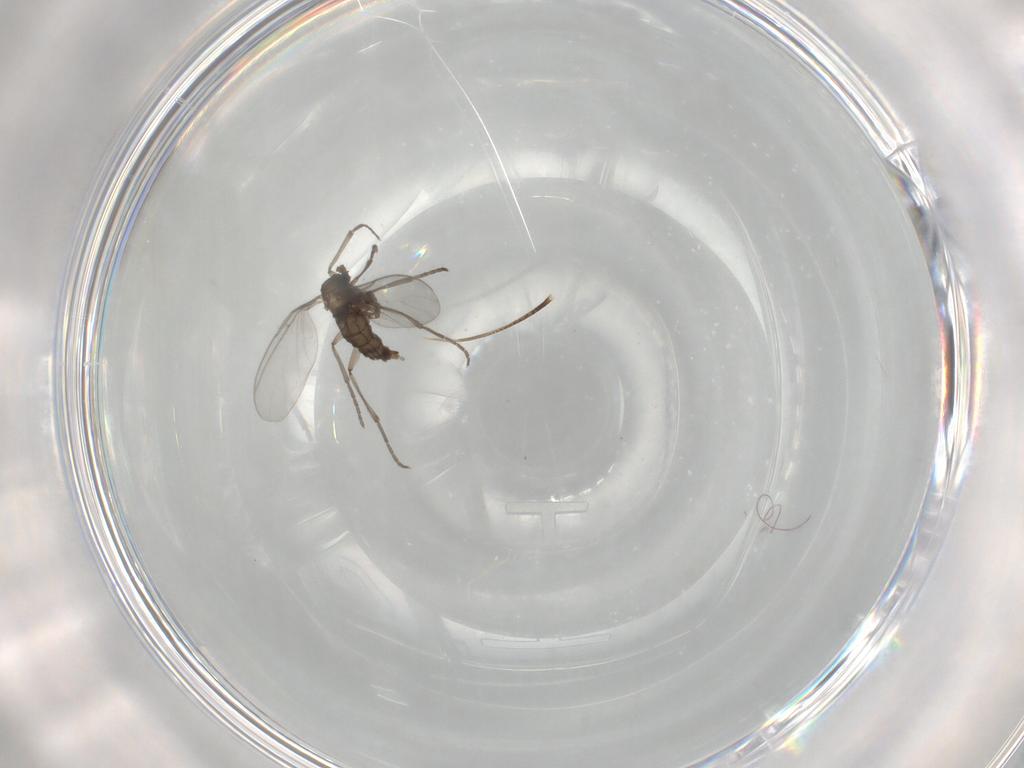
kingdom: Animalia
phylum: Arthropoda
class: Insecta
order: Diptera
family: Sciaridae
